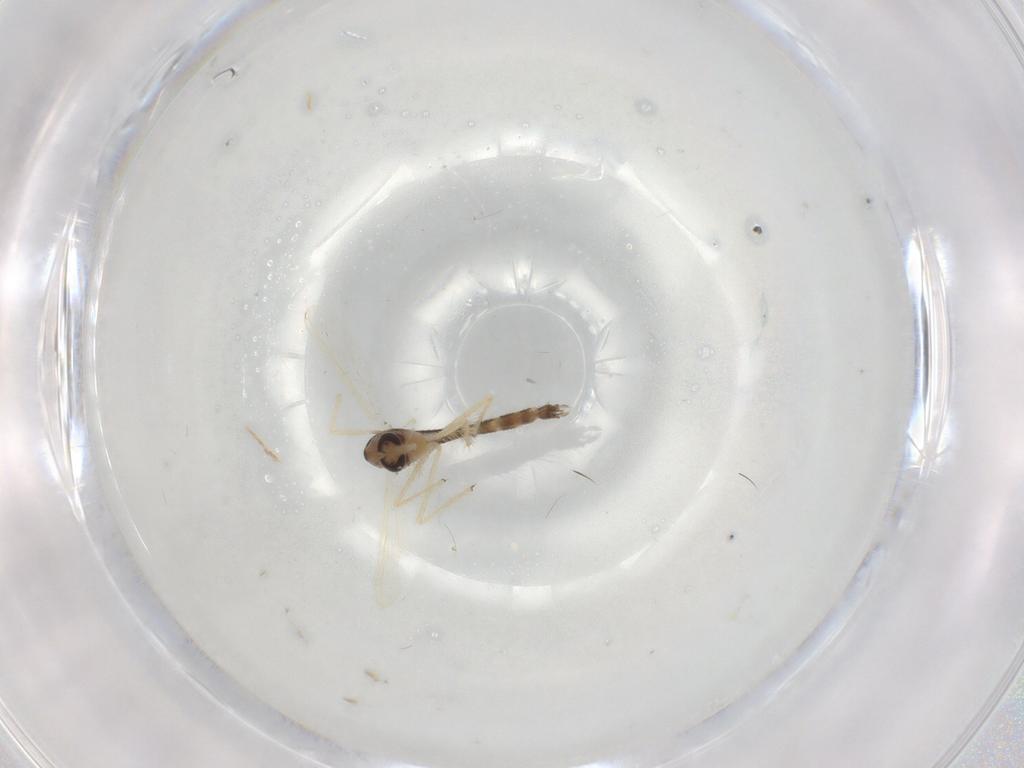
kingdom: Animalia
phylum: Arthropoda
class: Insecta
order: Diptera
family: Chironomidae
